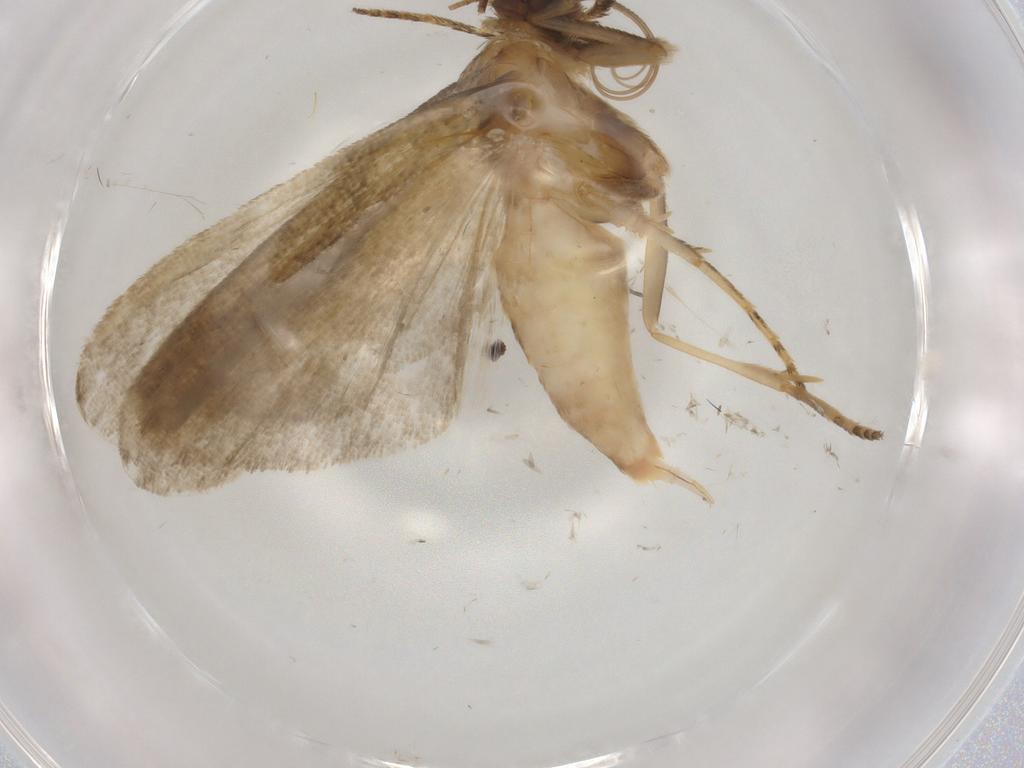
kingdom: Animalia
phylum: Arthropoda
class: Insecta
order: Lepidoptera
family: Noctuidae
